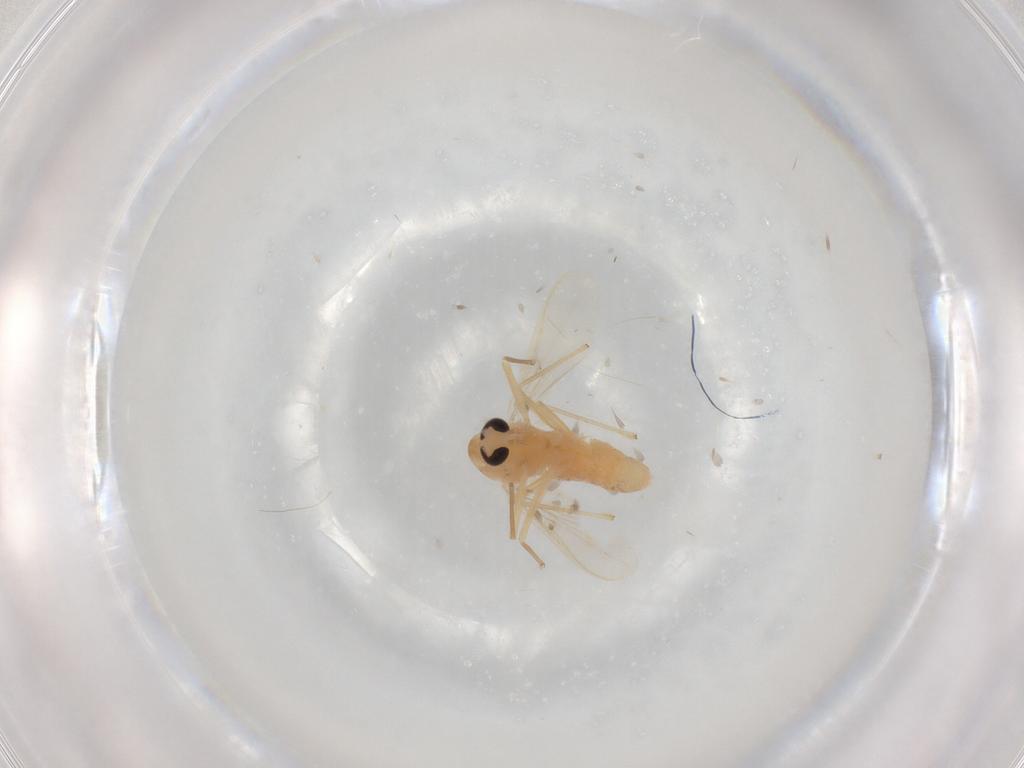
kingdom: Animalia
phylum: Arthropoda
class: Insecta
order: Diptera
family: Chironomidae
